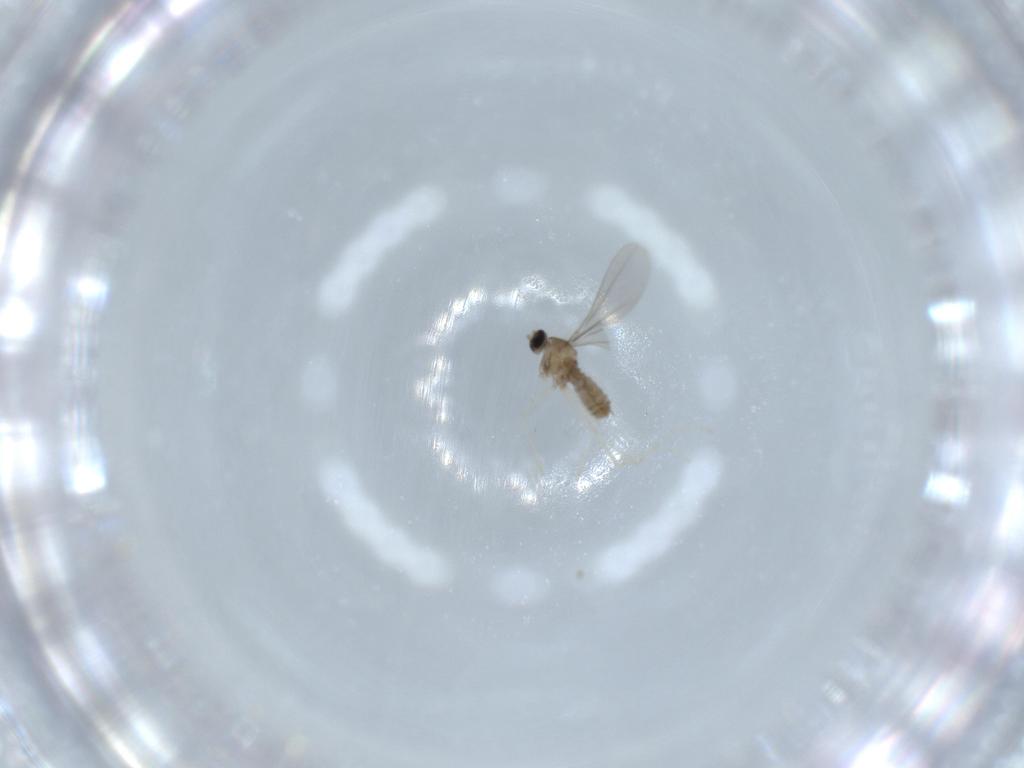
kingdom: Animalia
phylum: Arthropoda
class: Insecta
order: Diptera
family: Cecidomyiidae
